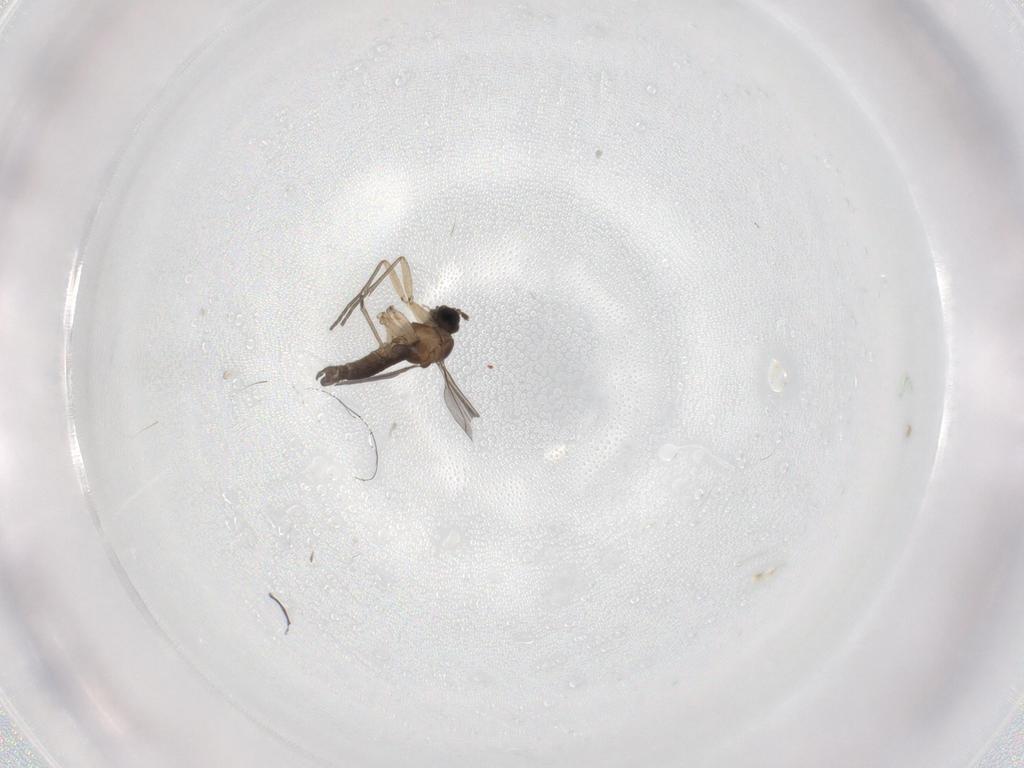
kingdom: Animalia
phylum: Arthropoda
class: Insecta
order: Diptera
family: Sciaridae
